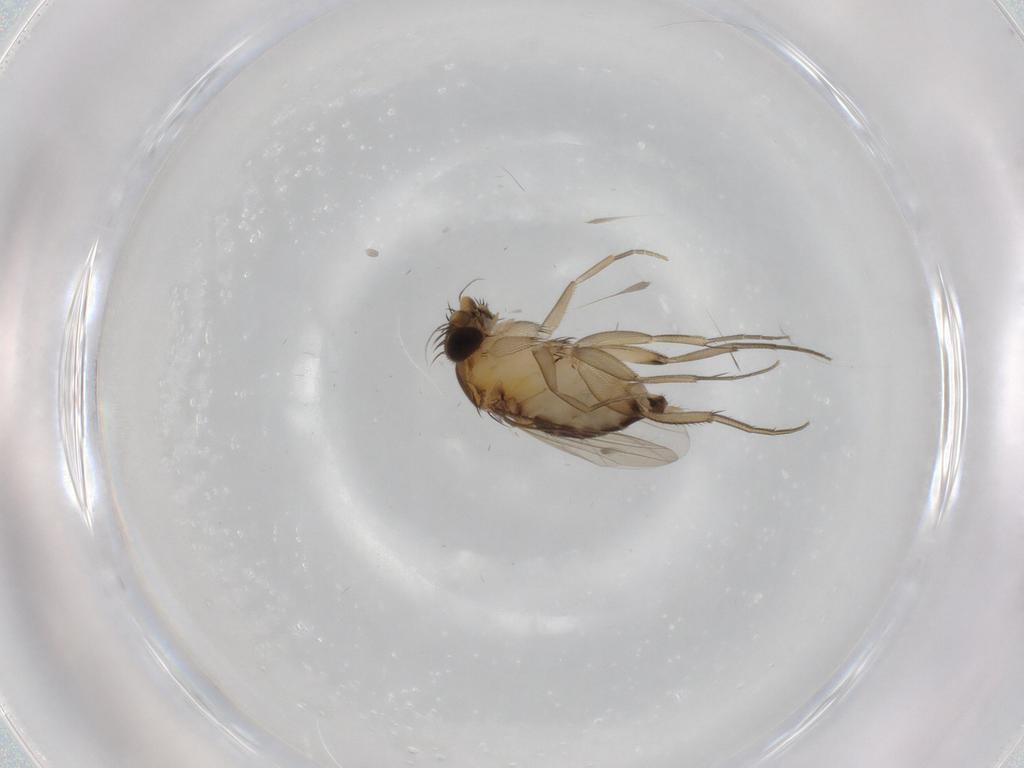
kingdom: Animalia
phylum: Arthropoda
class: Insecta
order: Diptera
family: Phoridae
